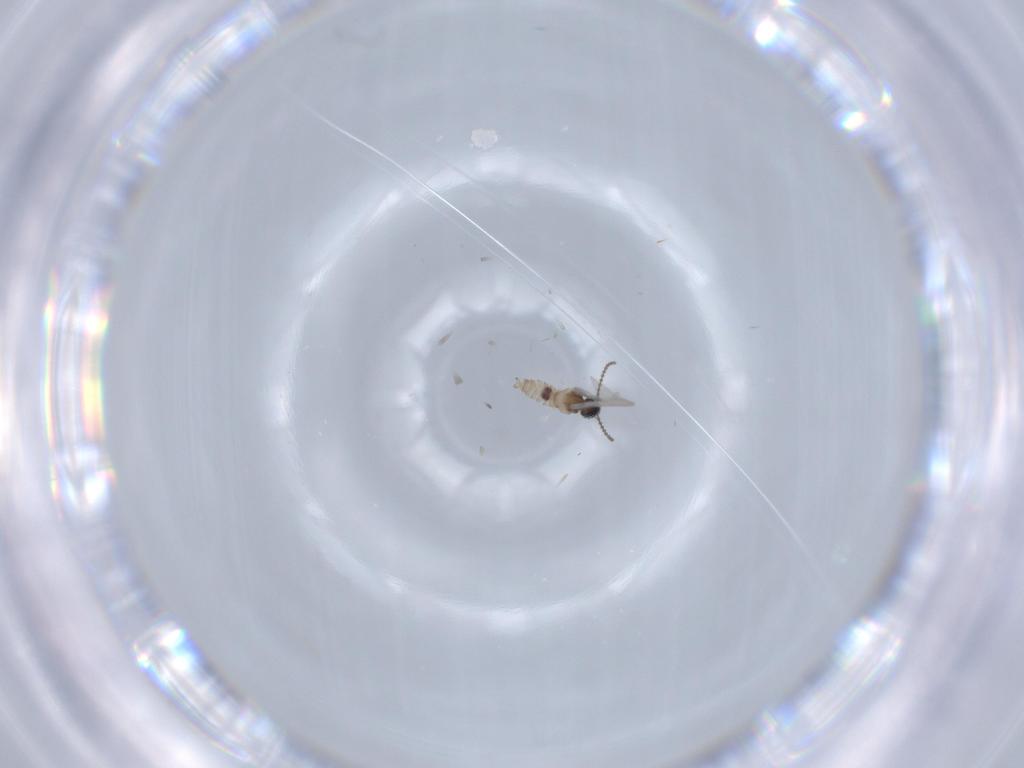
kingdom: Animalia
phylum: Arthropoda
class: Insecta
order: Diptera
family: Cecidomyiidae
